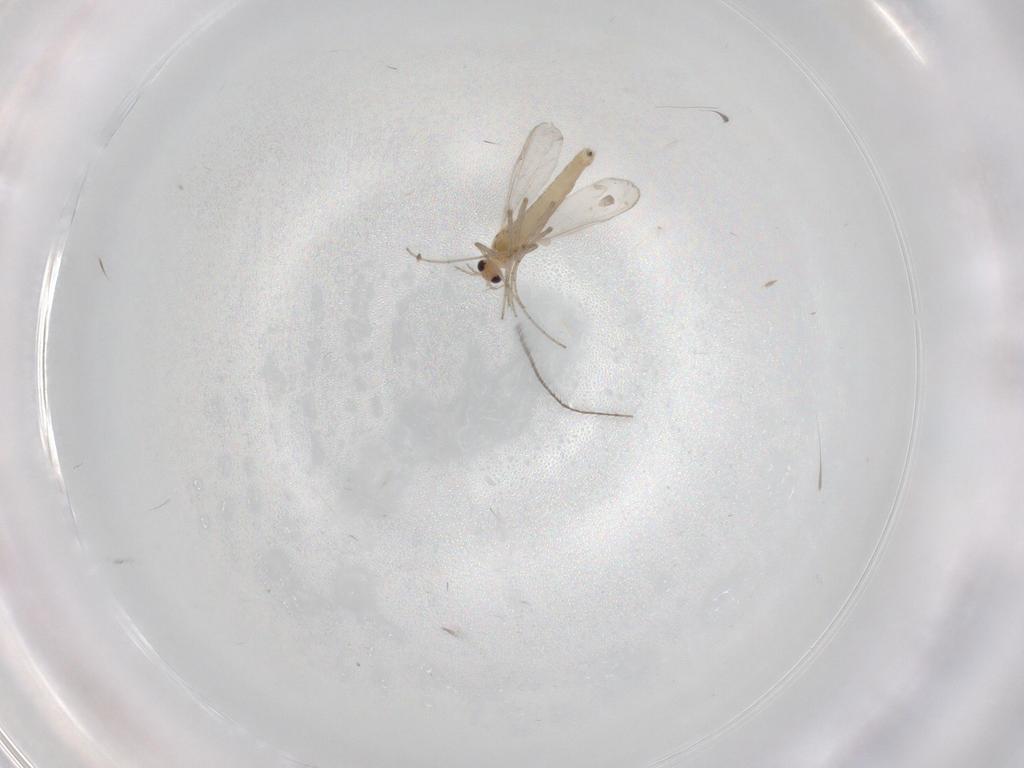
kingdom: Animalia
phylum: Arthropoda
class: Insecta
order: Diptera
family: Chironomidae
